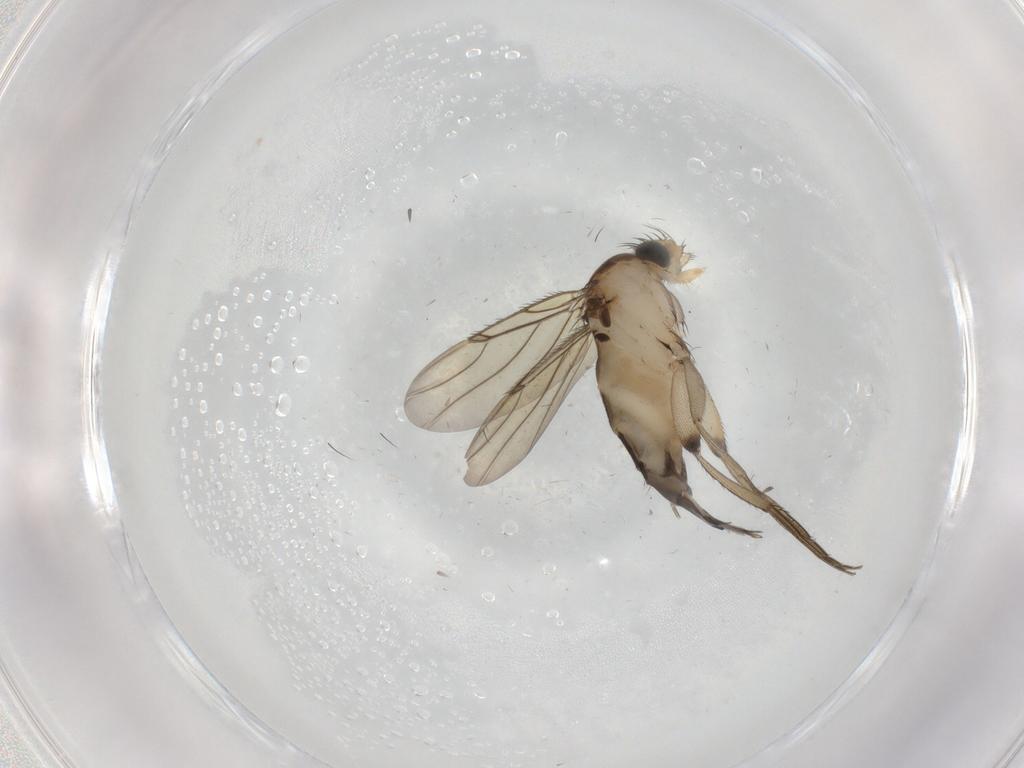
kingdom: Animalia
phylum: Arthropoda
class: Insecta
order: Diptera
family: Phoridae
